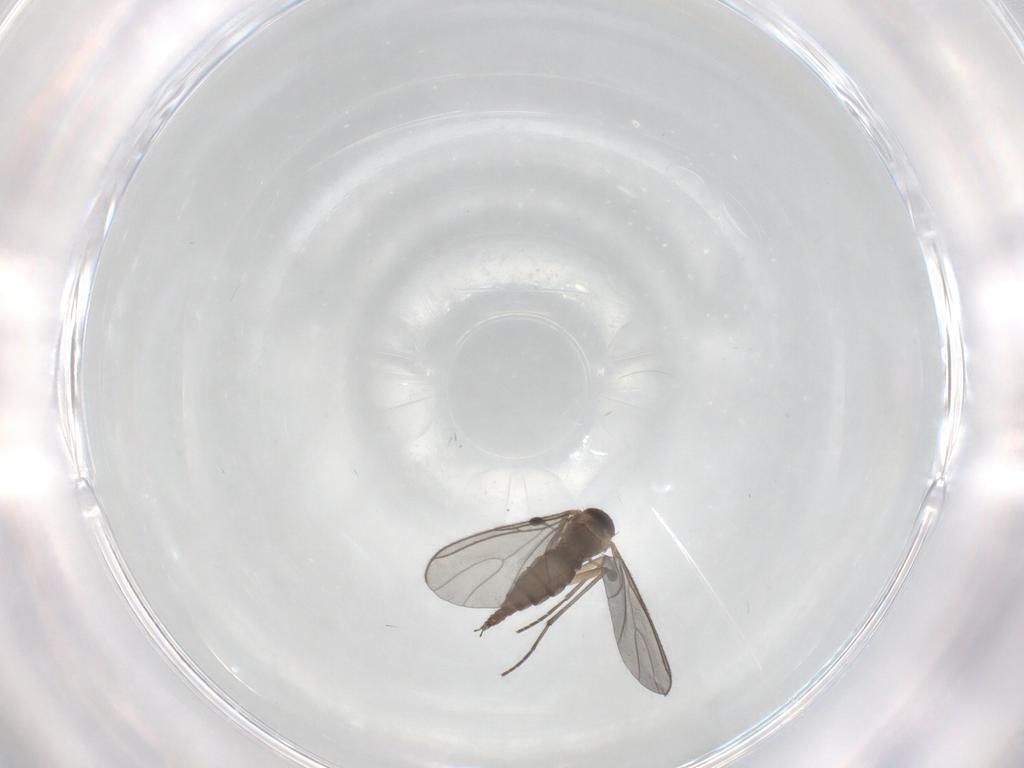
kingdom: Animalia
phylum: Arthropoda
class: Insecta
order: Diptera
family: Sciaridae
